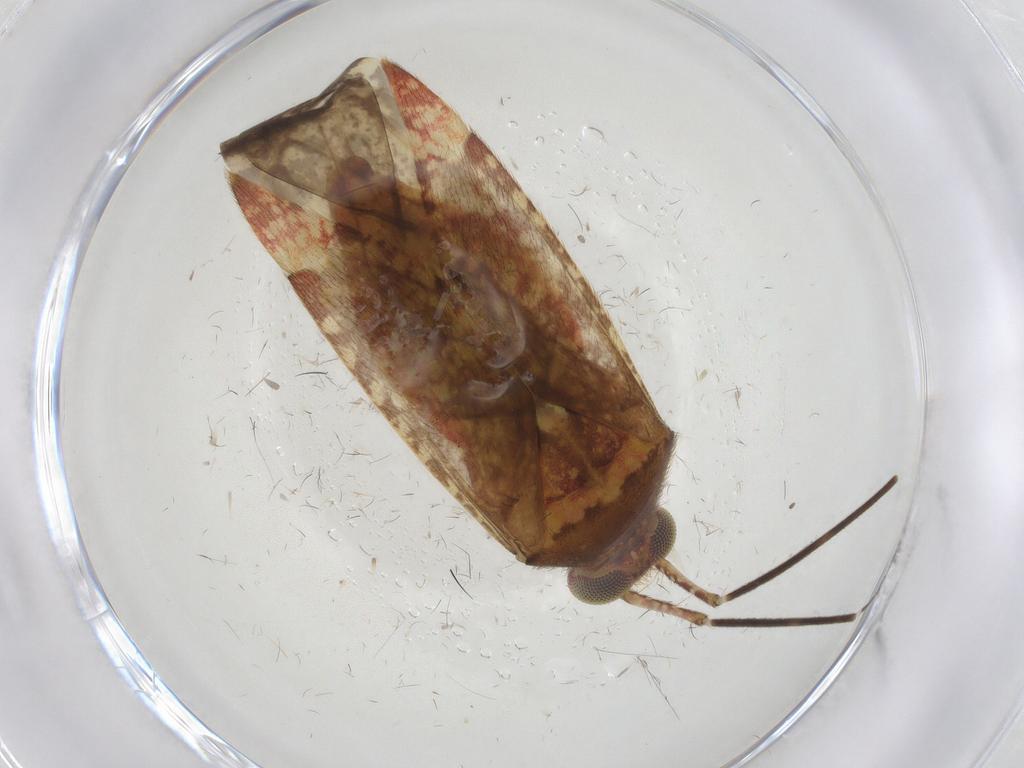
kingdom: Animalia
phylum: Arthropoda
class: Insecta
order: Hemiptera
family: Miridae
